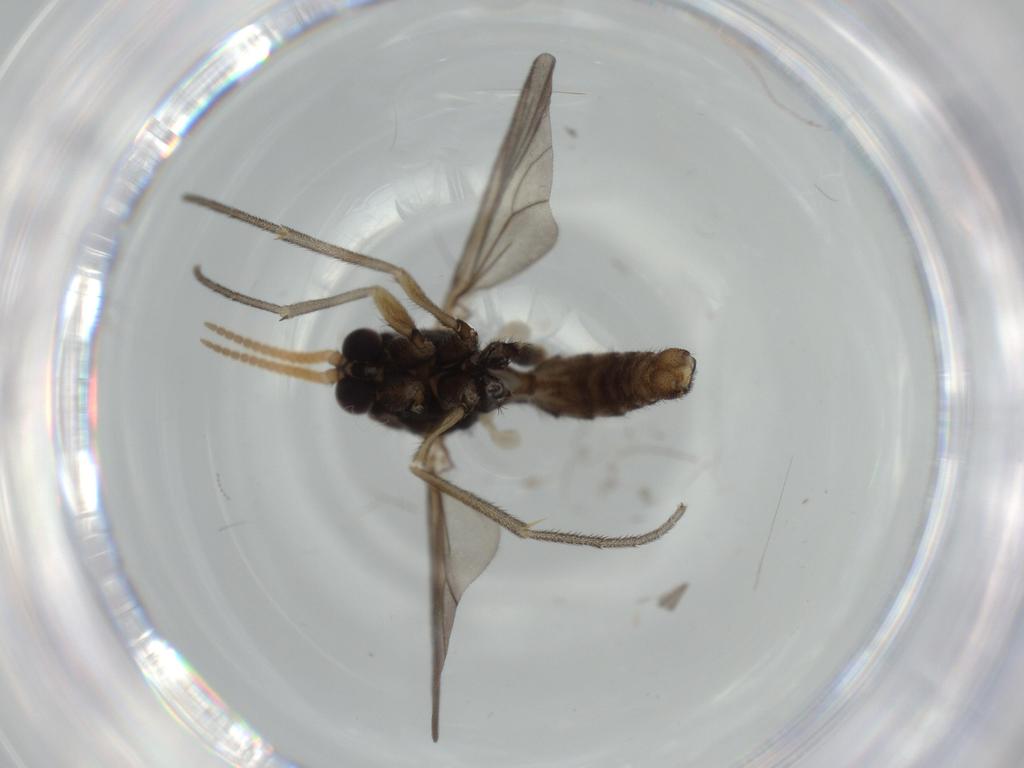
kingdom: Animalia
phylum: Arthropoda
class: Insecta
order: Diptera
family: Mycetophilidae
